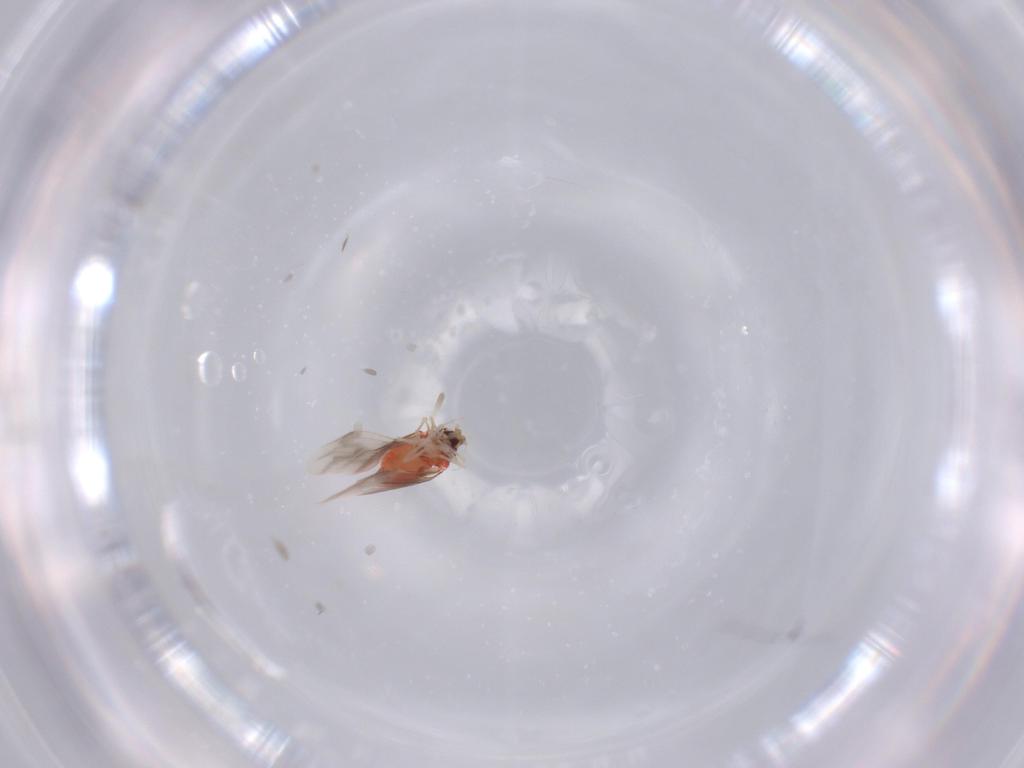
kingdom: Animalia
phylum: Arthropoda
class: Insecta
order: Hemiptera
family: Aleyrodidae
